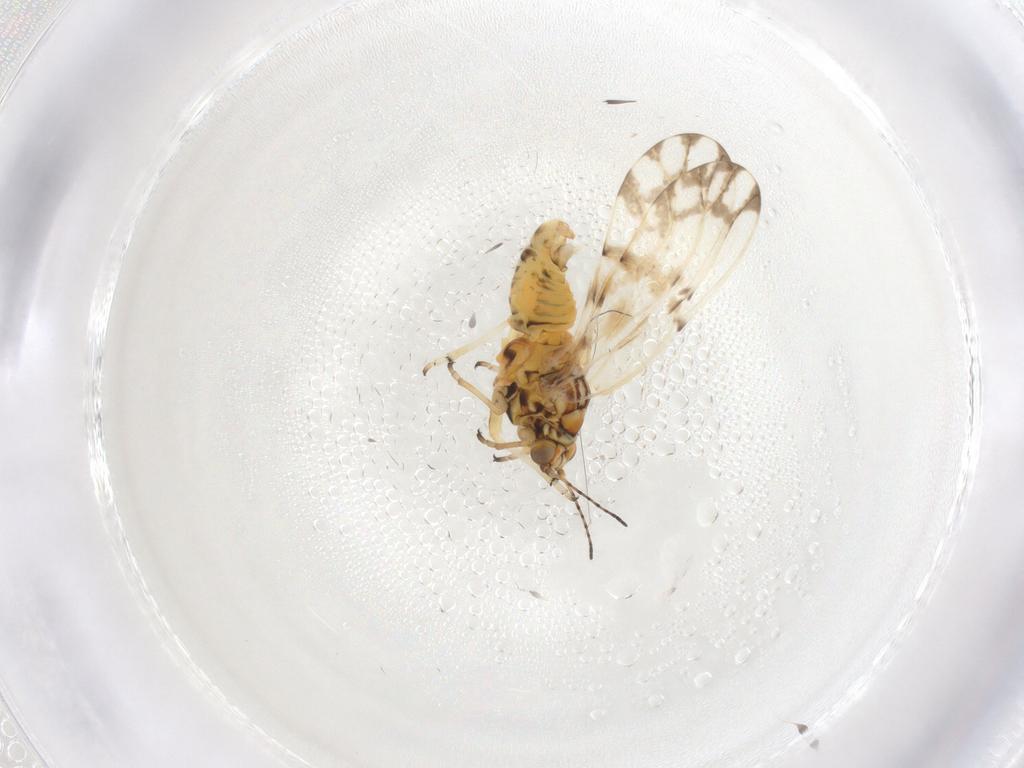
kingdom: Animalia
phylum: Arthropoda
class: Insecta
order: Hemiptera
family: Psylloidea_incertae_sedis
